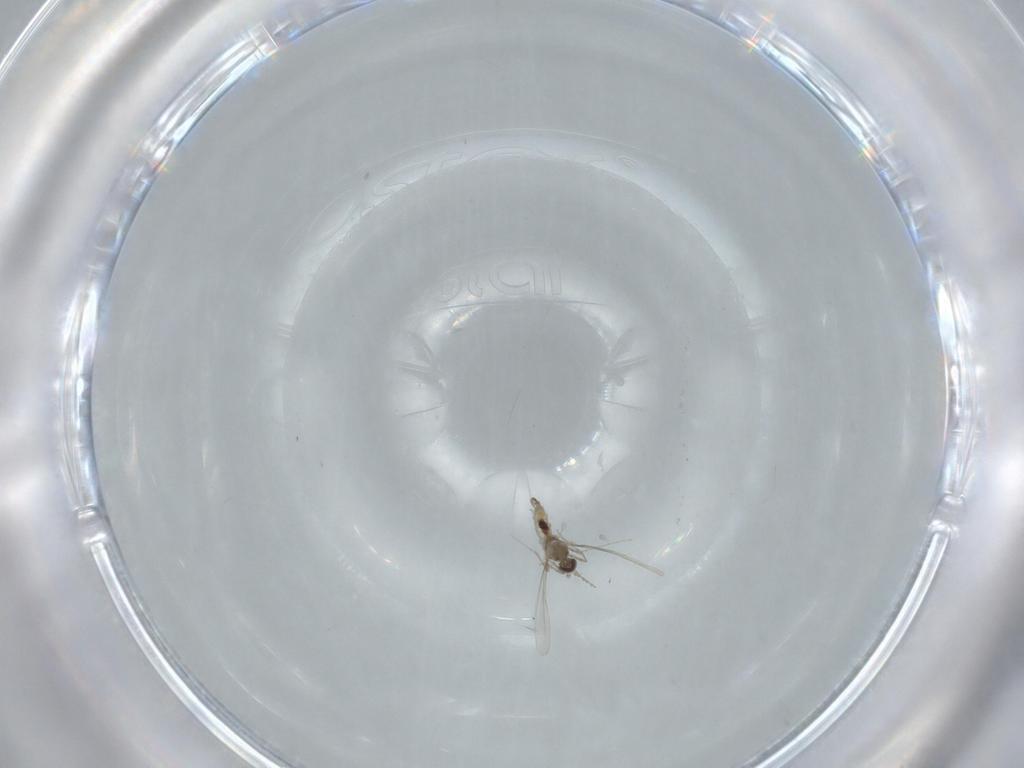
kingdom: Animalia
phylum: Arthropoda
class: Insecta
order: Diptera
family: Cecidomyiidae
